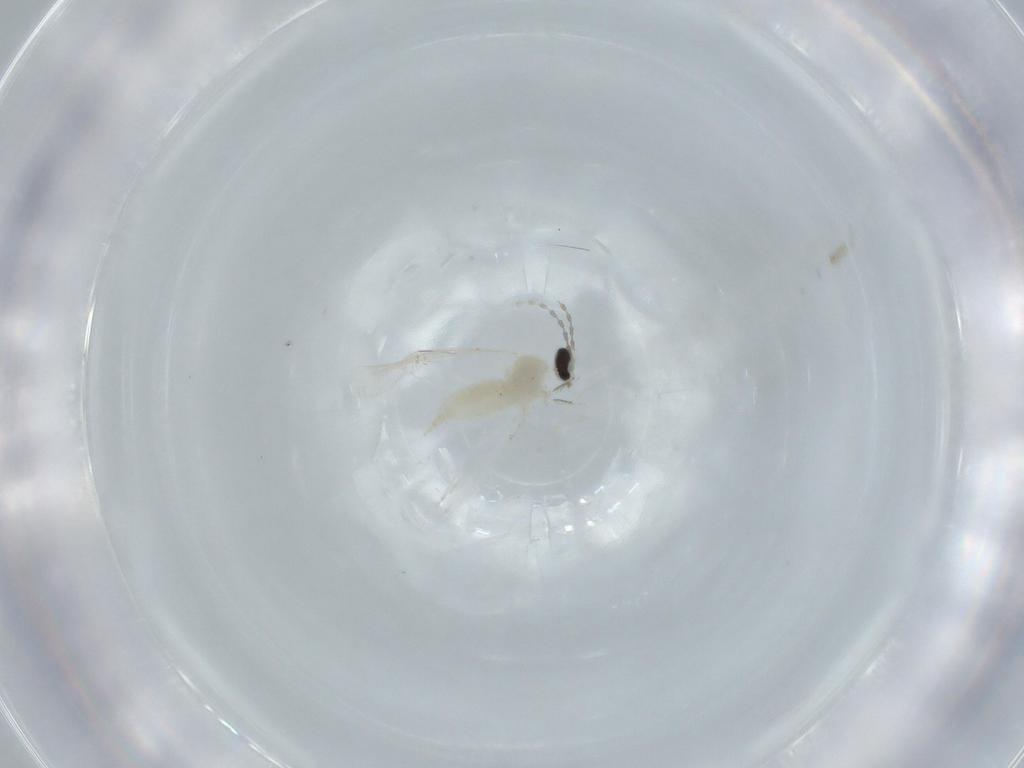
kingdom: Animalia
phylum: Arthropoda
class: Insecta
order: Diptera
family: Cecidomyiidae
